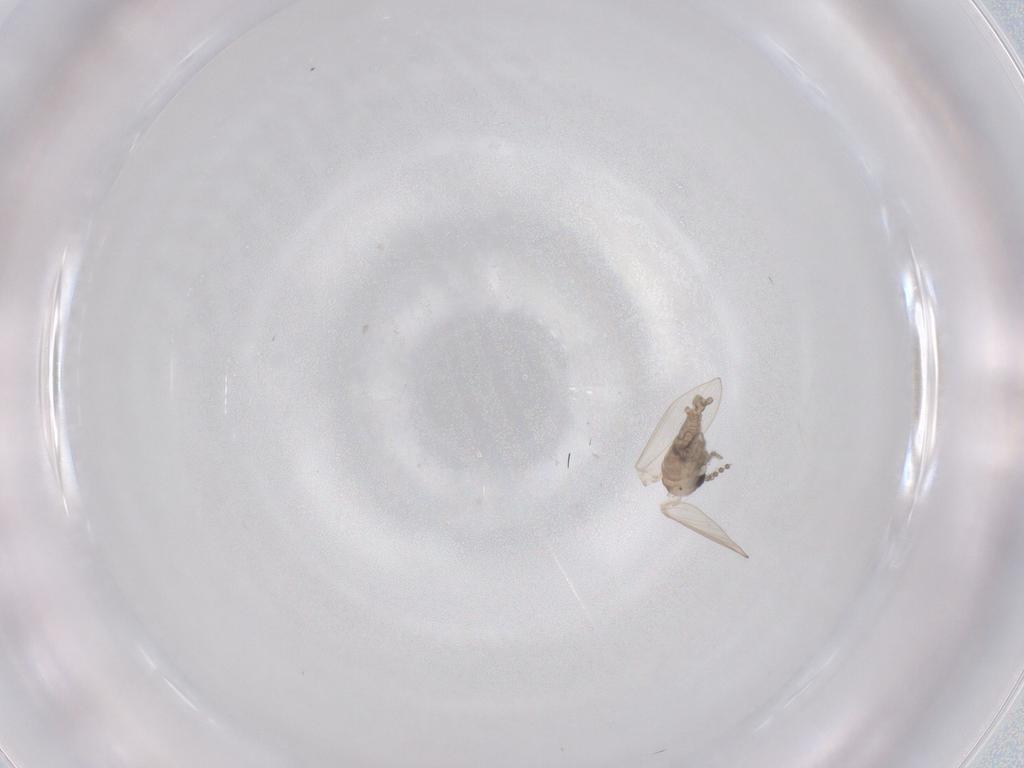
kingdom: Animalia
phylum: Arthropoda
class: Insecta
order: Diptera
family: Psychodidae
